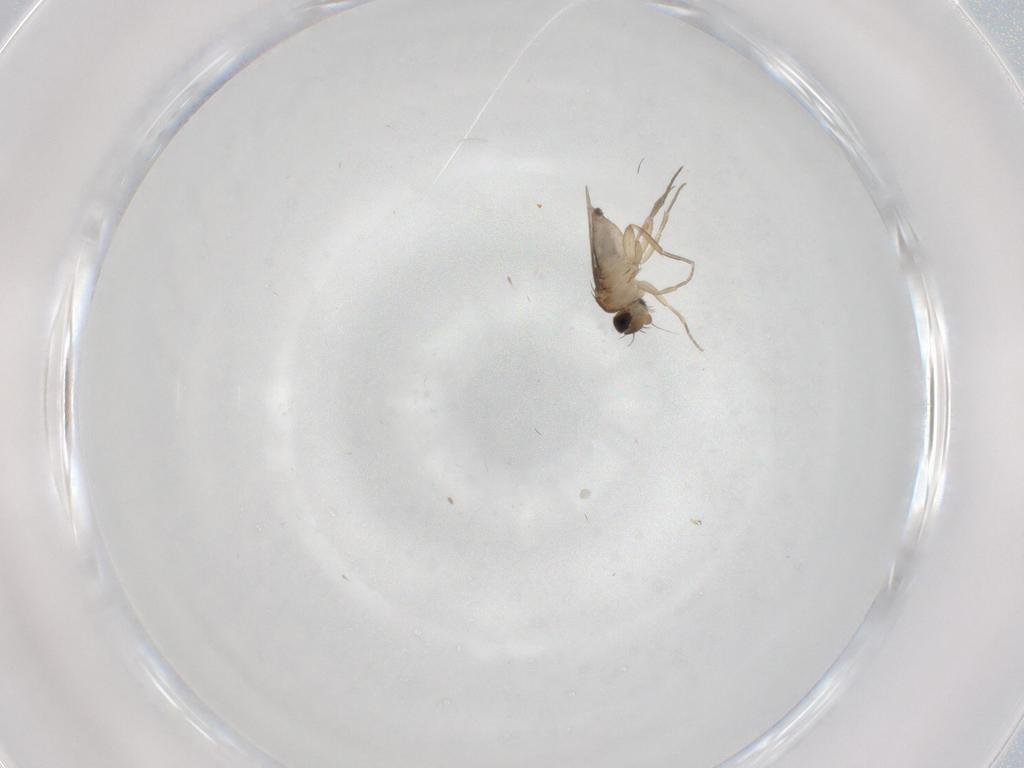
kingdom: Animalia
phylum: Arthropoda
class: Insecta
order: Diptera
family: Phoridae
